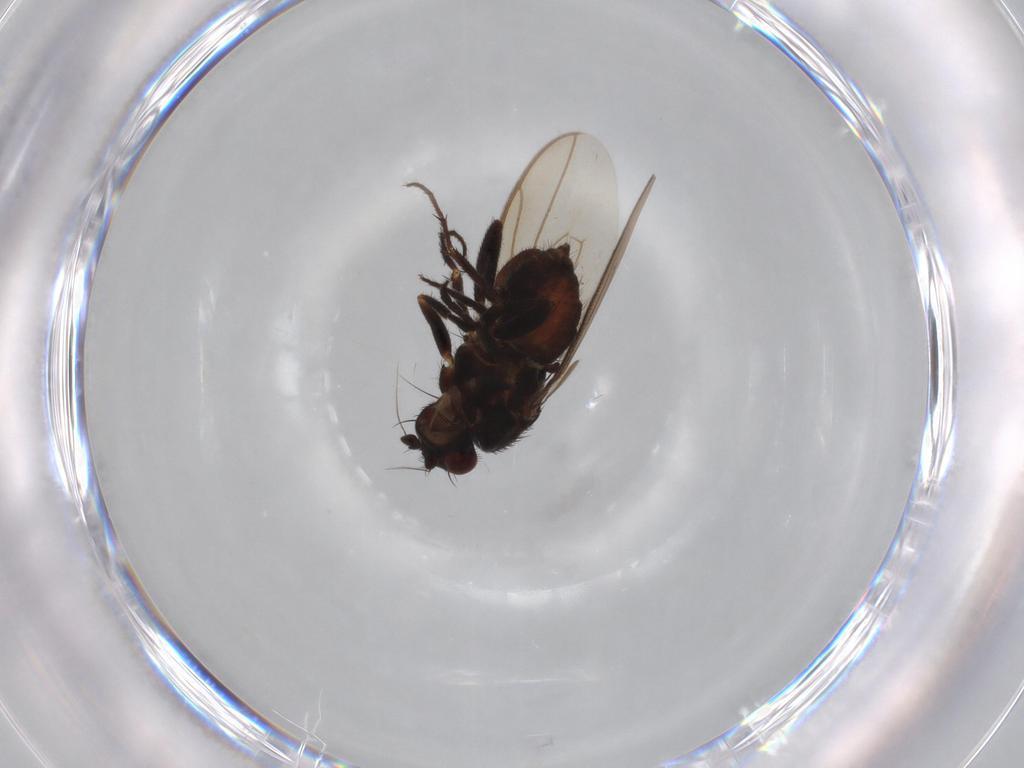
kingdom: Animalia
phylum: Arthropoda
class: Insecta
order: Diptera
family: Sphaeroceridae
